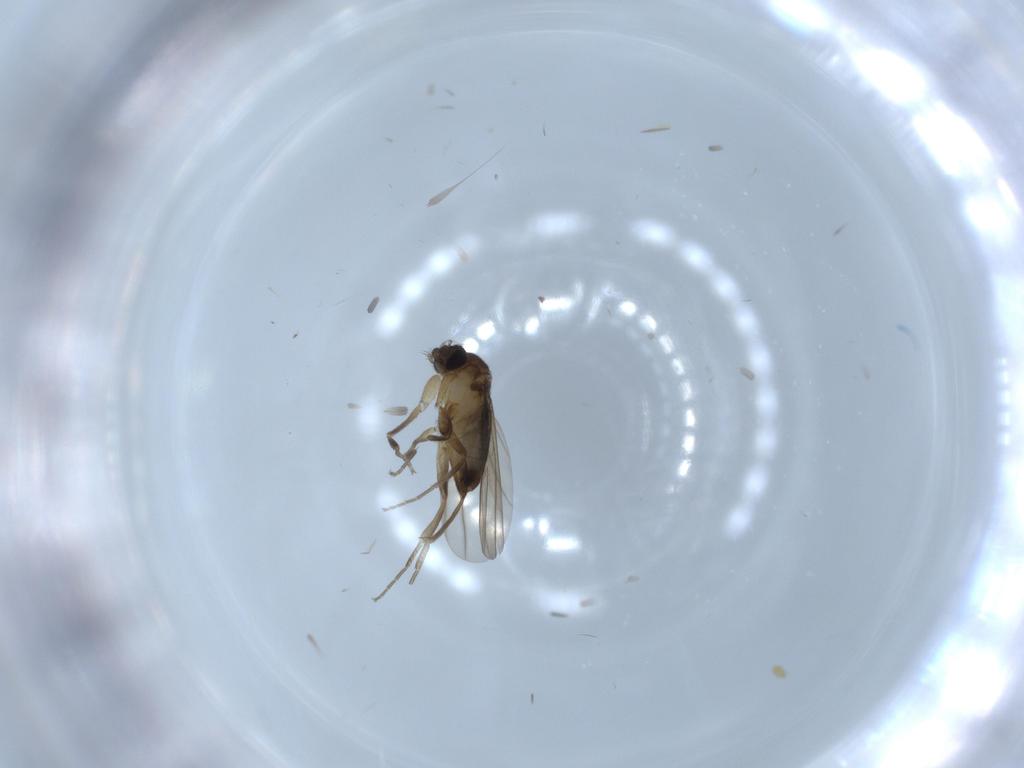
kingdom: Animalia
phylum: Arthropoda
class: Insecta
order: Diptera
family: Phoridae
